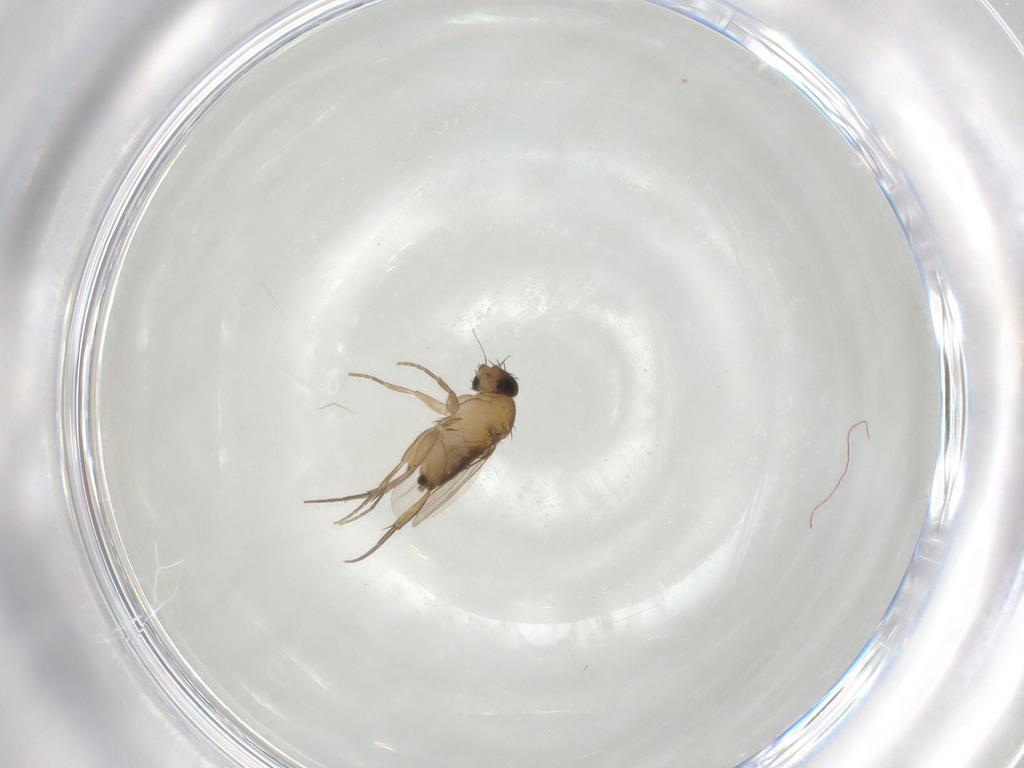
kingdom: Animalia
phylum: Arthropoda
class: Insecta
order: Diptera
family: Phoridae
